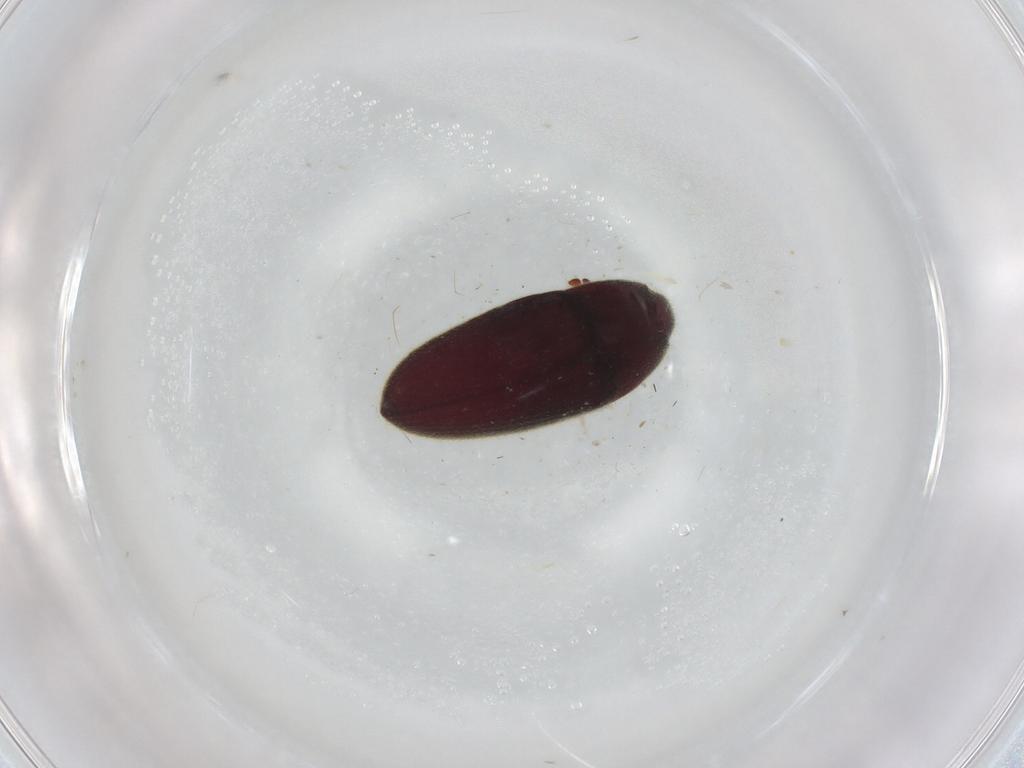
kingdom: Animalia
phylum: Arthropoda
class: Insecta
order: Coleoptera
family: Throscidae
